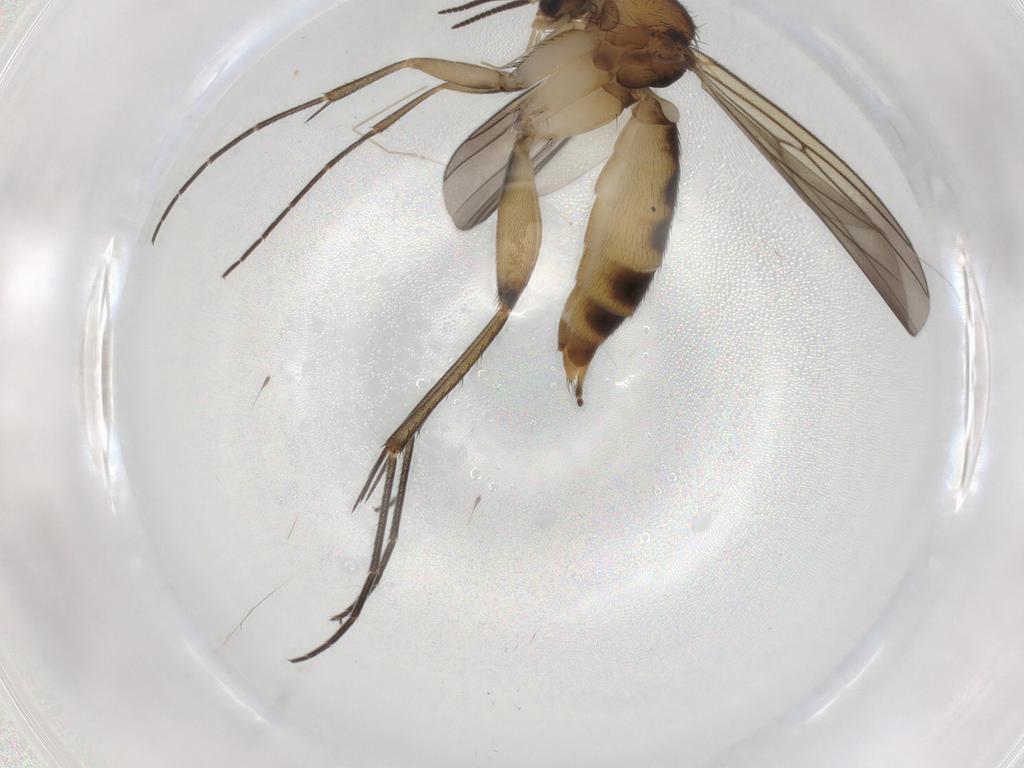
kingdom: Animalia
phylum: Arthropoda
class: Insecta
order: Diptera
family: Mycetophilidae
